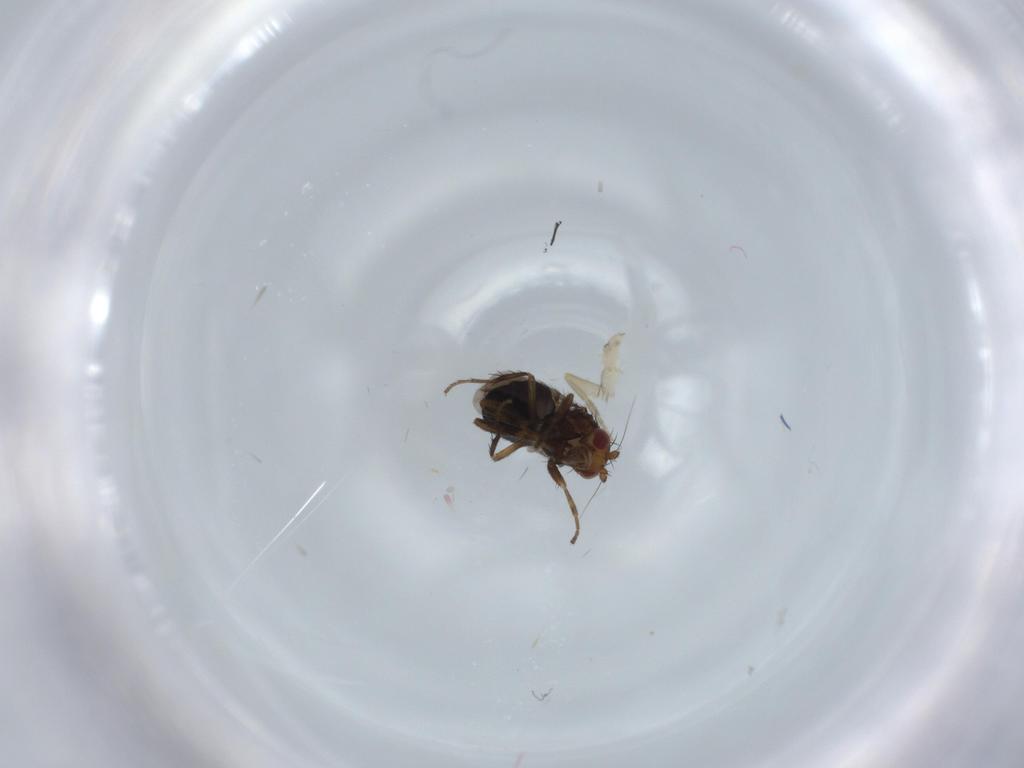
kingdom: Animalia
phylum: Arthropoda
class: Insecta
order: Diptera
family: Phoridae
